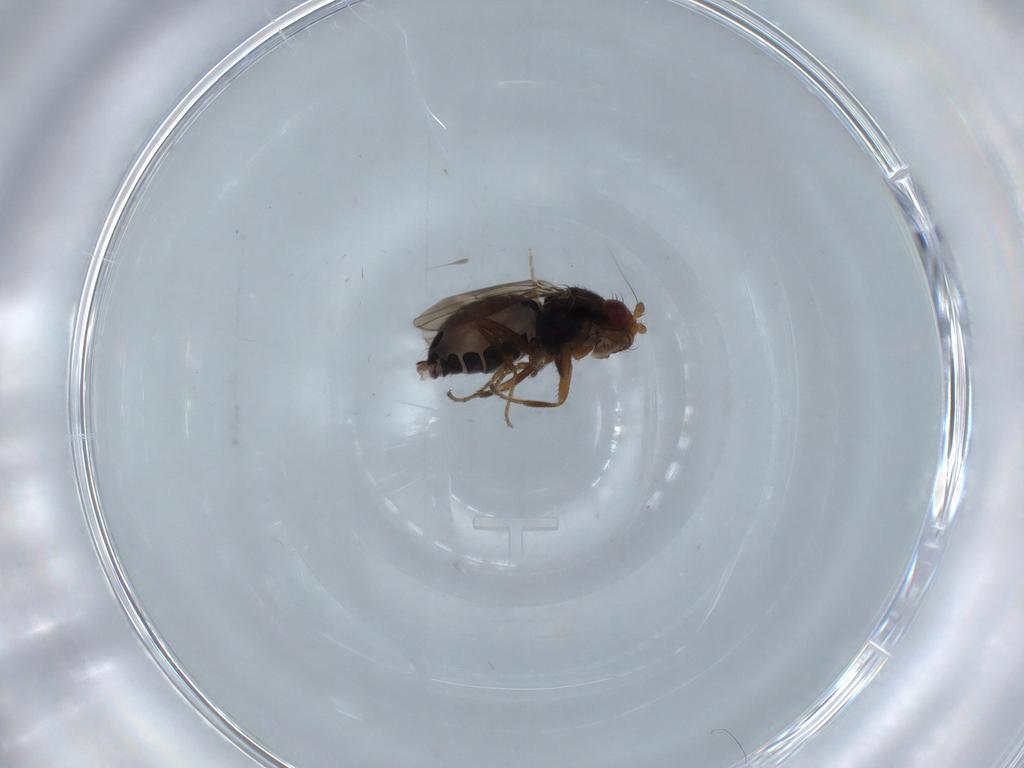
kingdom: Animalia
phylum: Arthropoda
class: Insecta
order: Diptera
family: Sphaeroceridae
